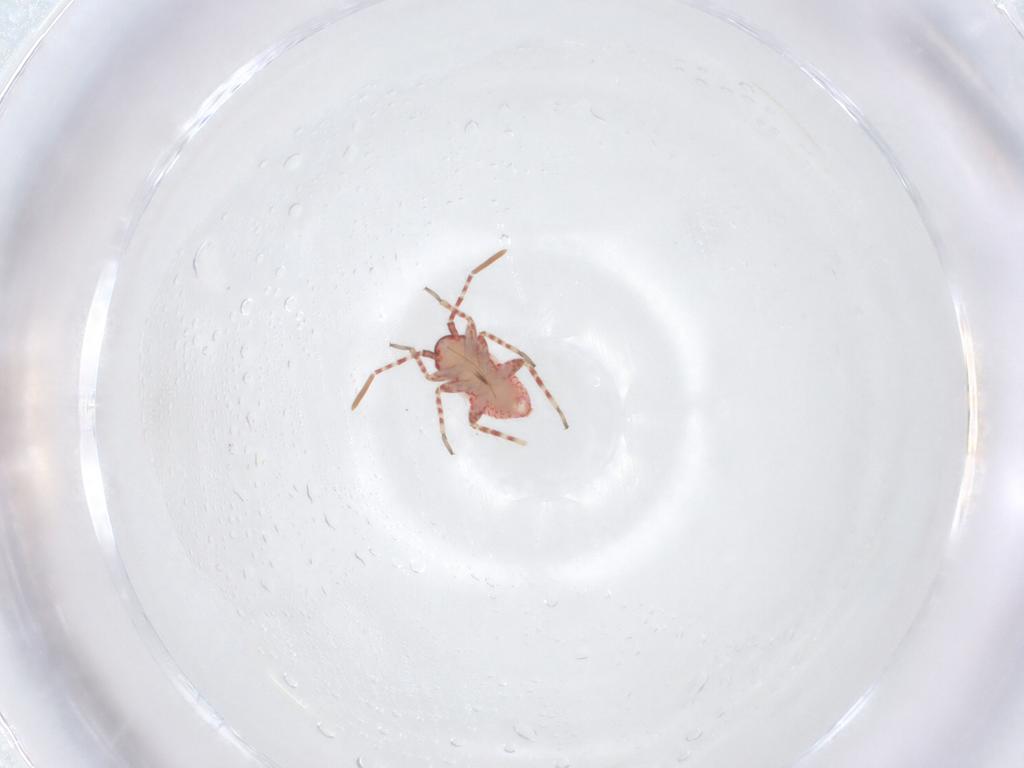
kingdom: Animalia
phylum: Arthropoda
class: Insecta
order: Hemiptera
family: Miridae
